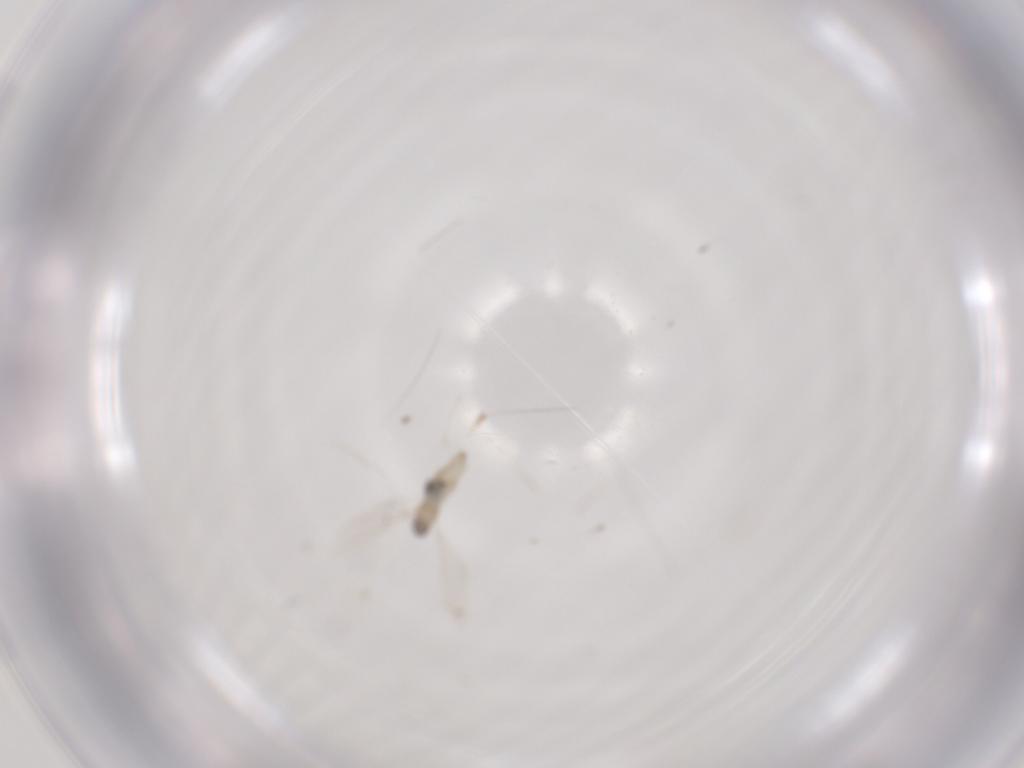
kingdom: Animalia
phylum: Arthropoda
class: Insecta
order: Diptera
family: Cecidomyiidae
